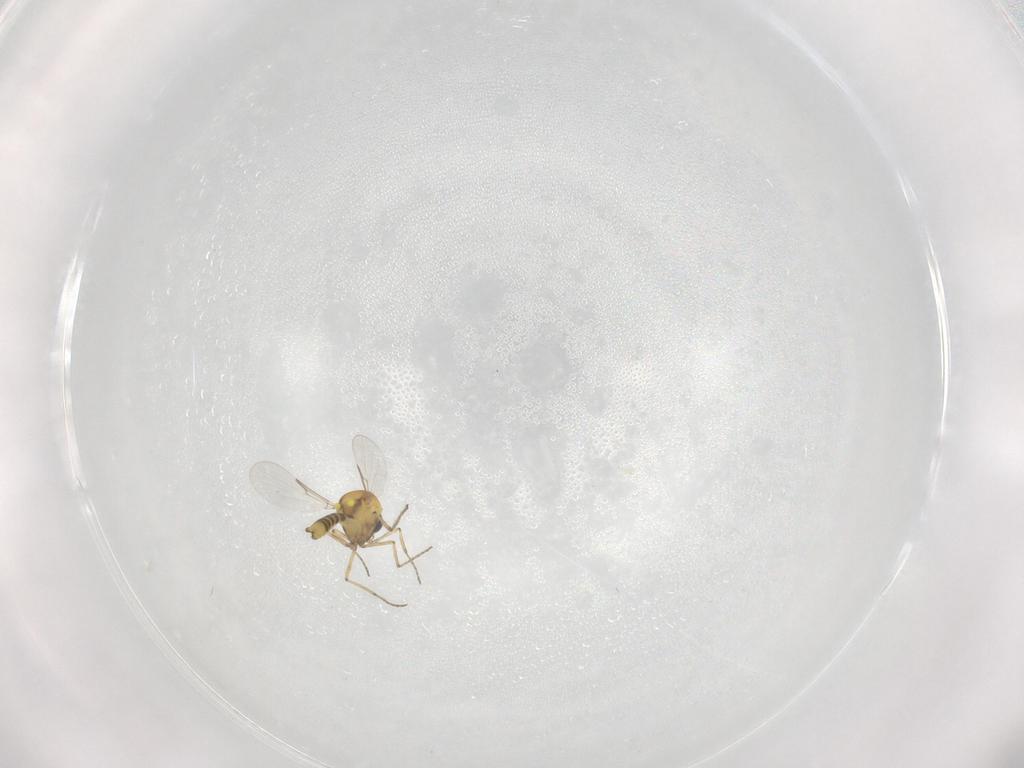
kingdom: Animalia
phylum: Arthropoda
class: Insecta
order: Diptera
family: Ceratopogonidae
